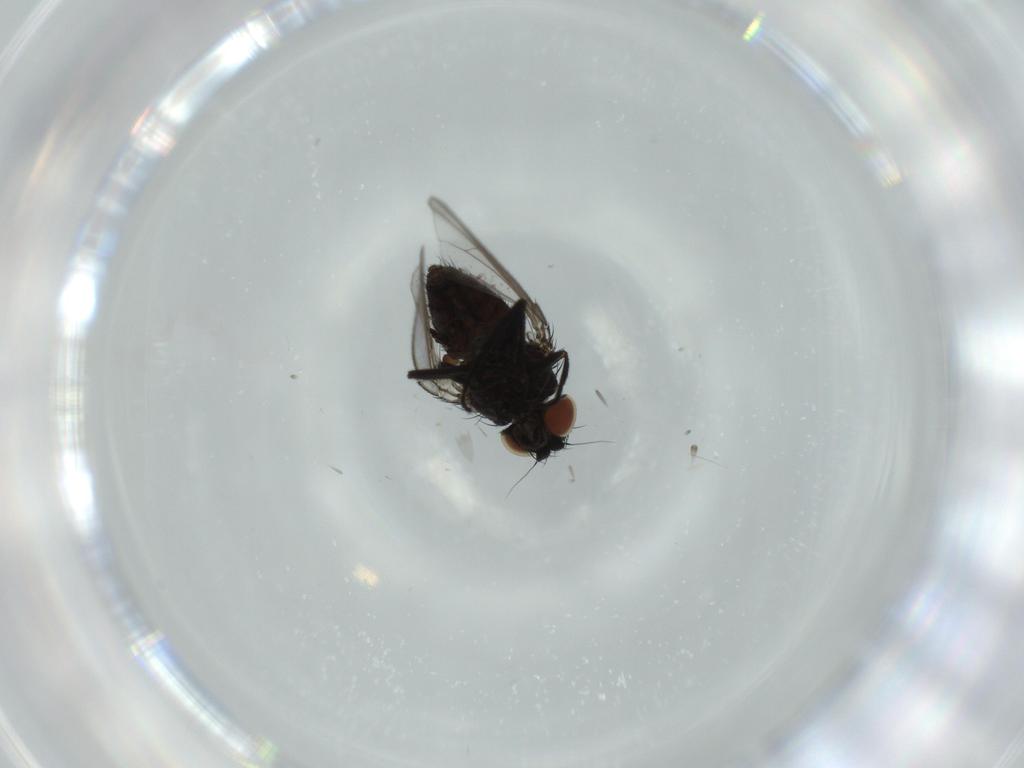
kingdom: Animalia
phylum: Arthropoda
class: Insecta
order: Diptera
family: Milichiidae
